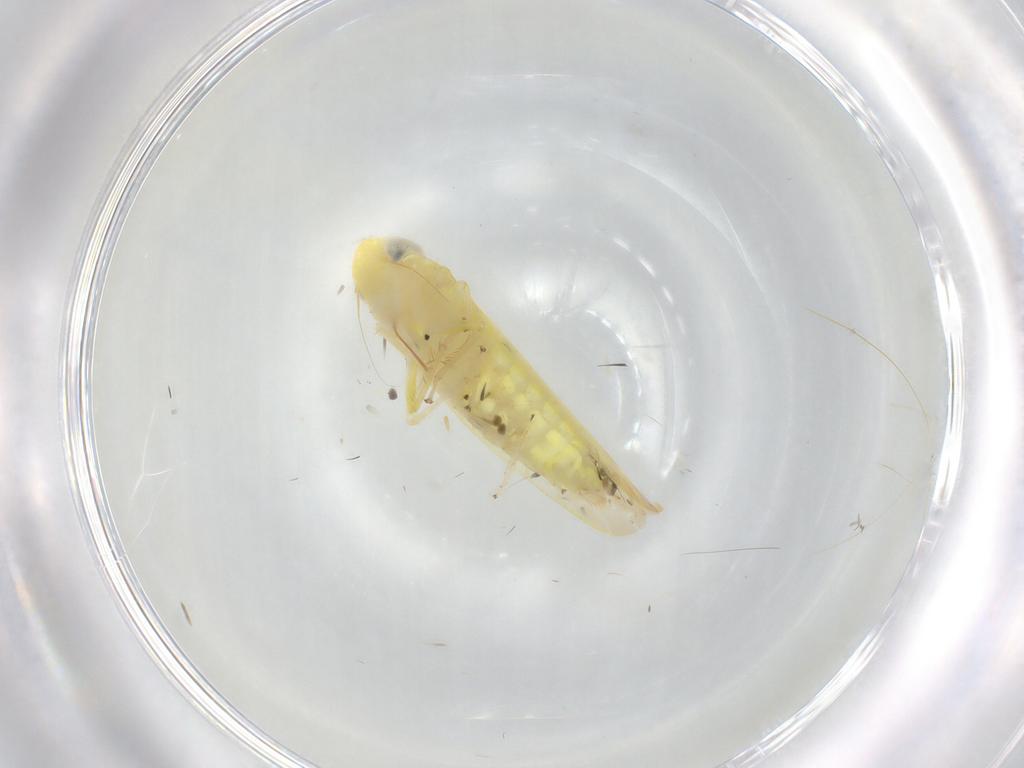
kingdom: Animalia
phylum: Arthropoda
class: Insecta
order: Hemiptera
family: Cicadellidae
